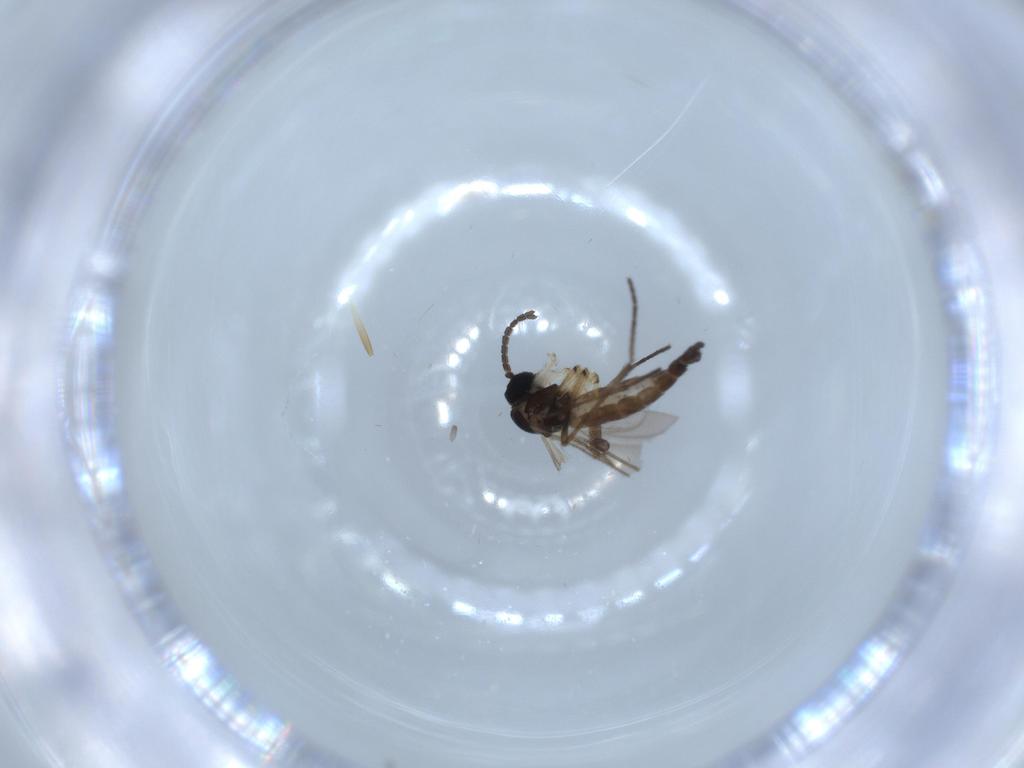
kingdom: Animalia
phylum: Arthropoda
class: Insecta
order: Diptera
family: Sciaridae
